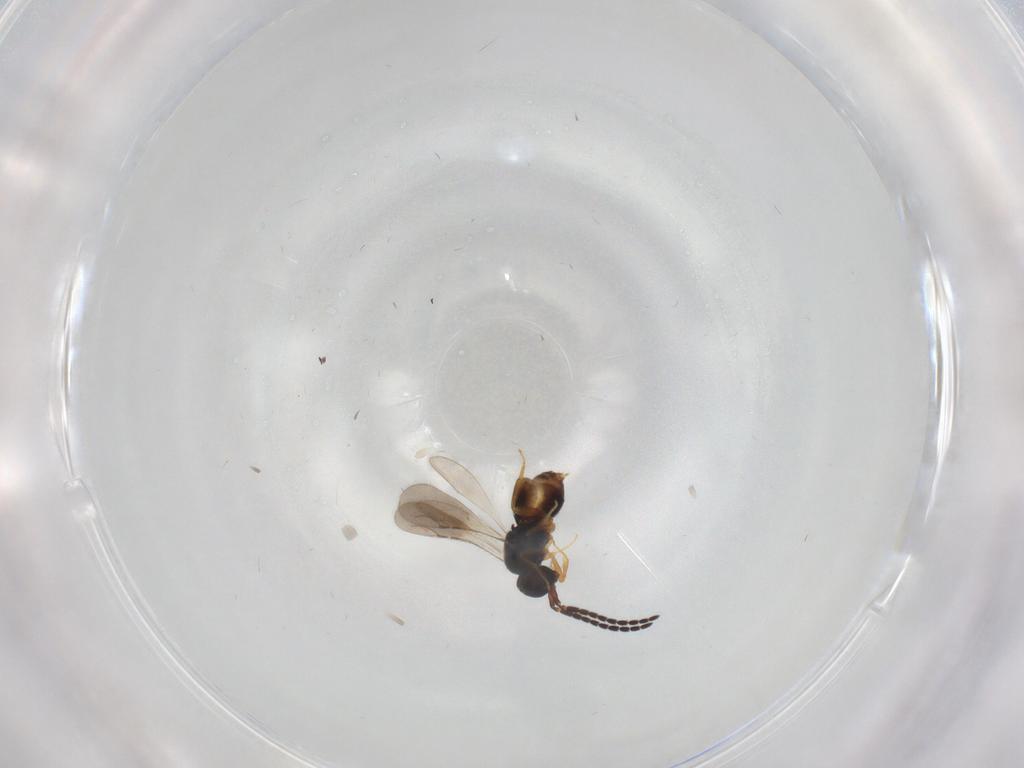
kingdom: Animalia
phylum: Arthropoda
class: Insecta
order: Hymenoptera
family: Ceraphronidae
